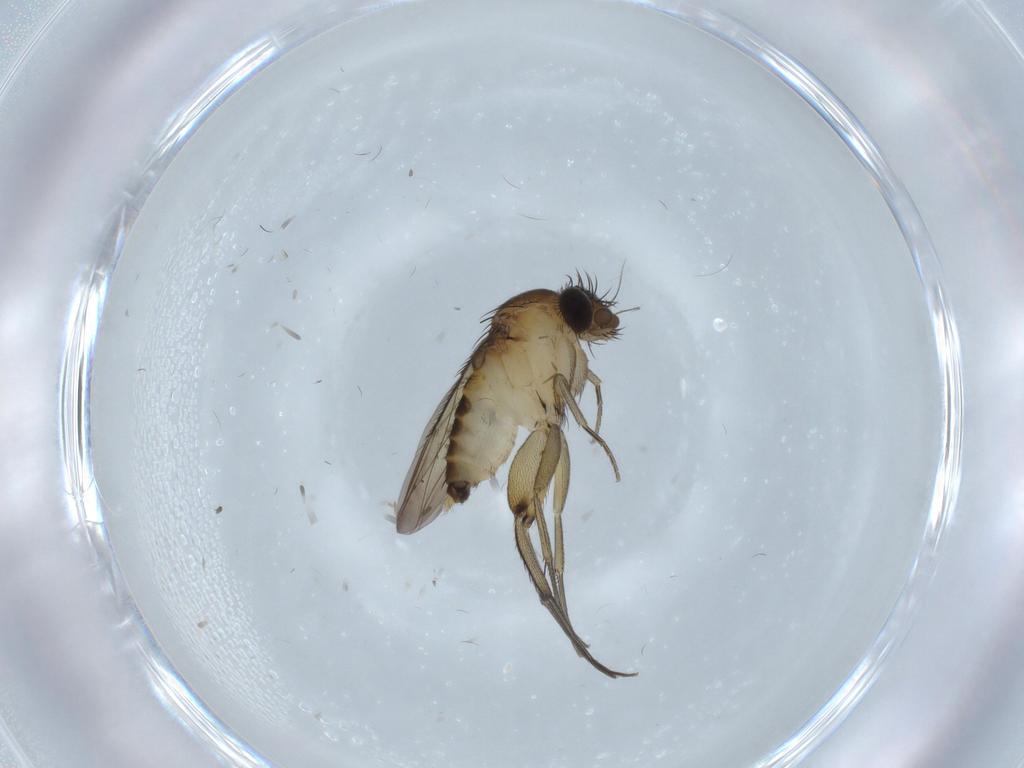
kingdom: Animalia
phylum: Arthropoda
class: Insecta
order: Diptera
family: Phoridae
